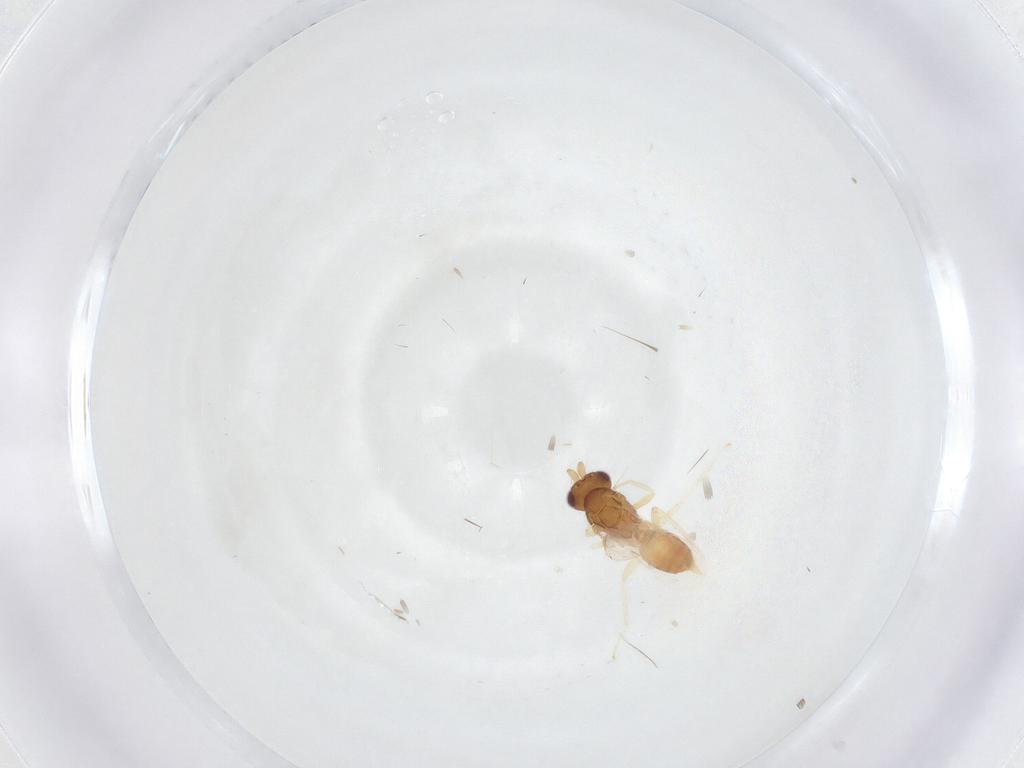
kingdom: Animalia
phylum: Arthropoda
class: Insecta
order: Hymenoptera
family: Eulophidae
